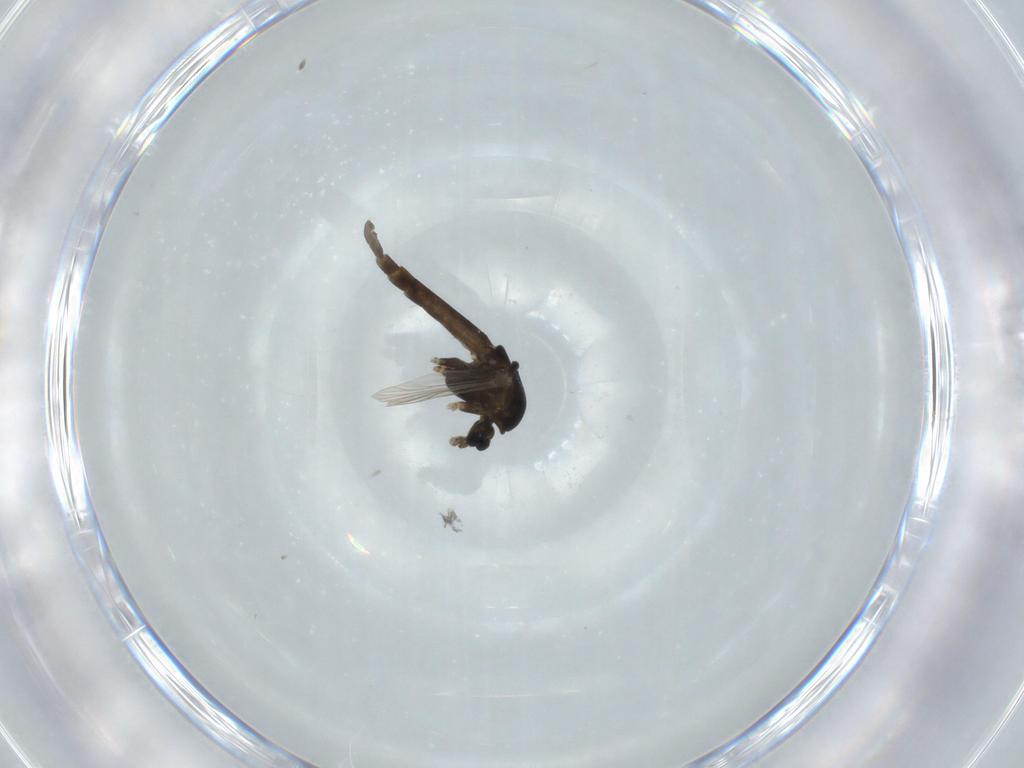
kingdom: Animalia
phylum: Arthropoda
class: Insecta
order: Diptera
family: Chironomidae
